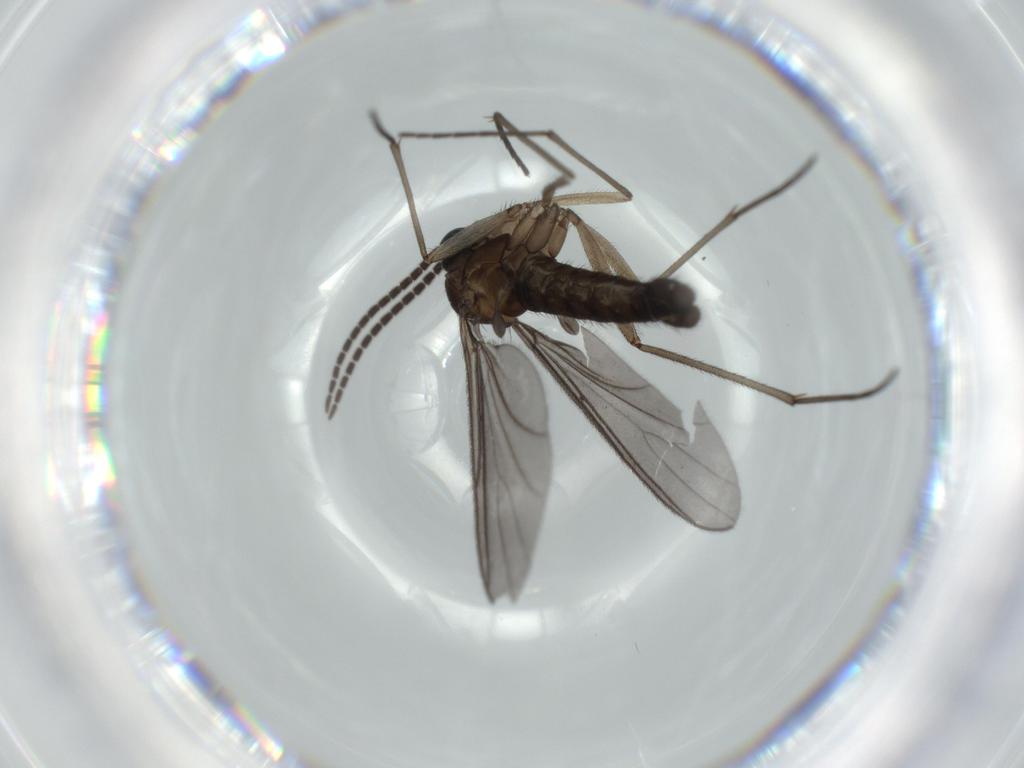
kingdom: Animalia
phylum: Arthropoda
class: Insecta
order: Diptera
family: Sciaridae
